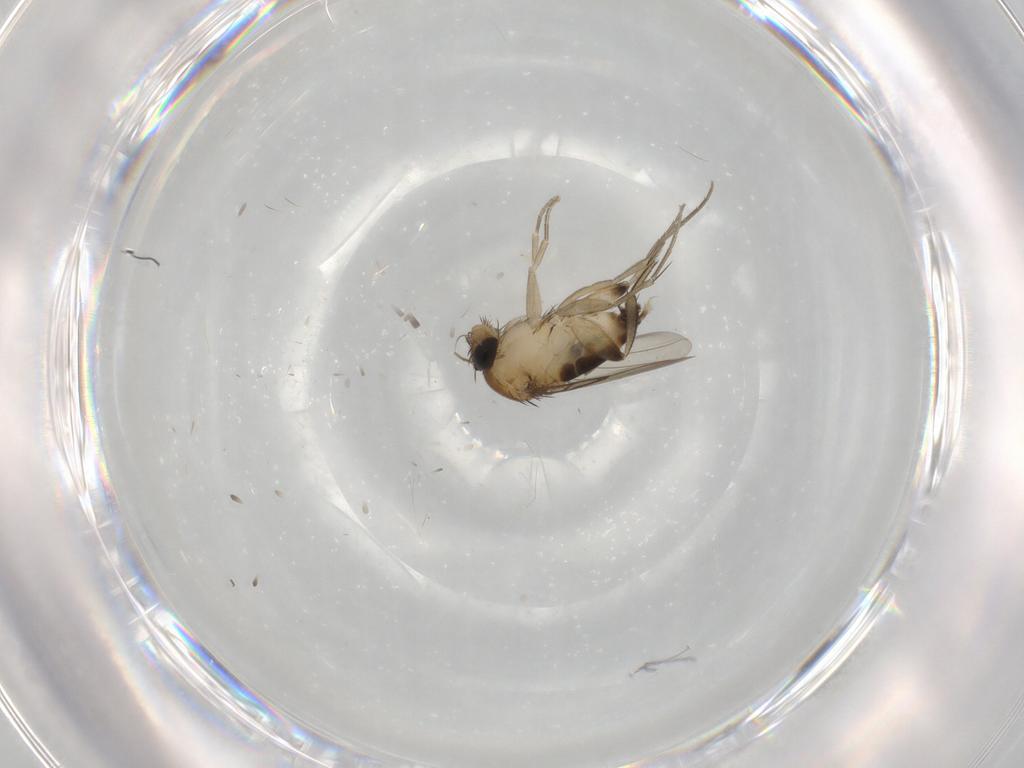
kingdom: Animalia
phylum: Arthropoda
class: Insecta
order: Diptera
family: Phoridae
